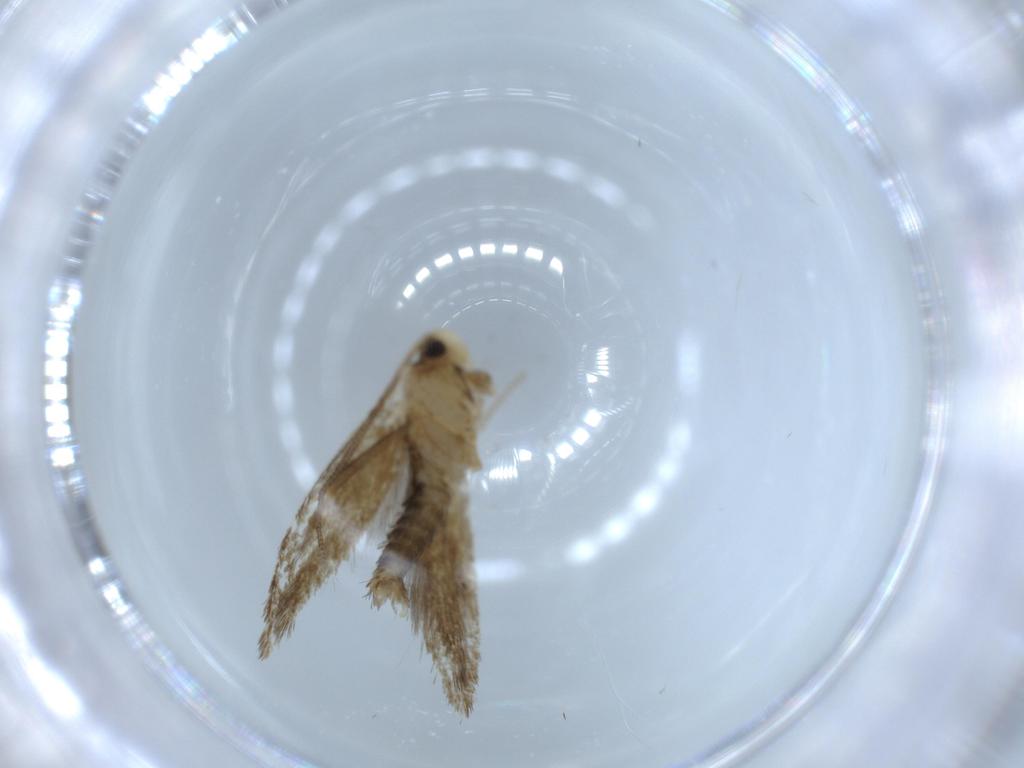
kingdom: Animalia
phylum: Arthropoda
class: Insecta
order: Lepidoptera
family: Tineidae
